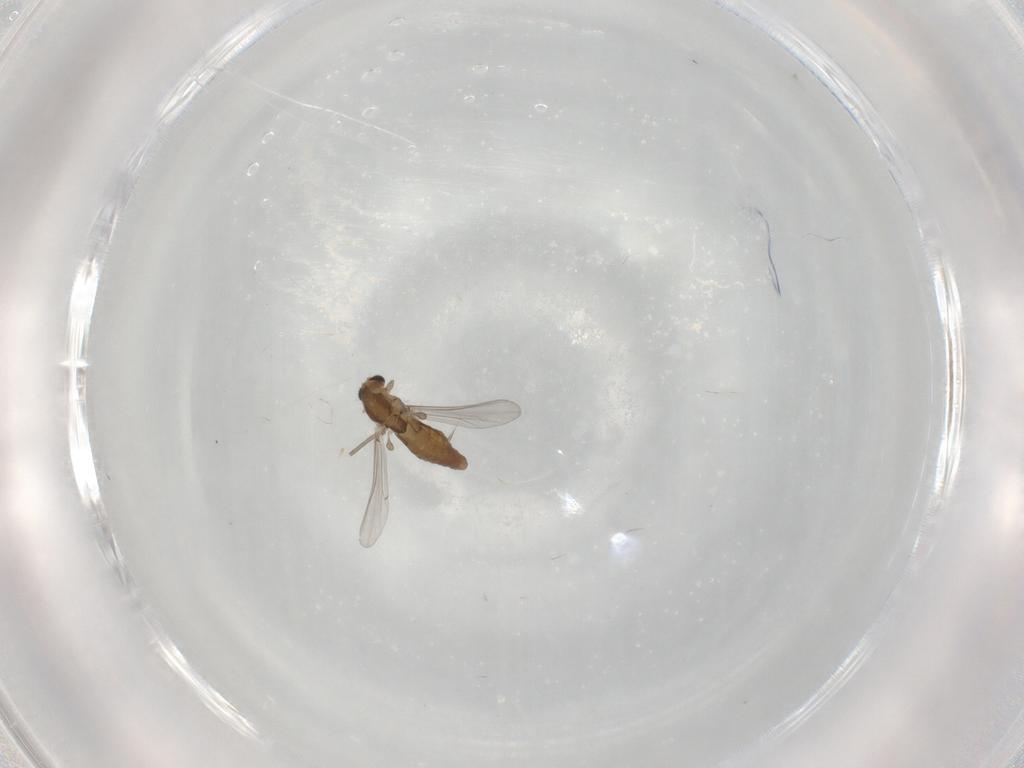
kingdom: Animalia
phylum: Arthropoda
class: Insecta
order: Diptera
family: Chironomidae
